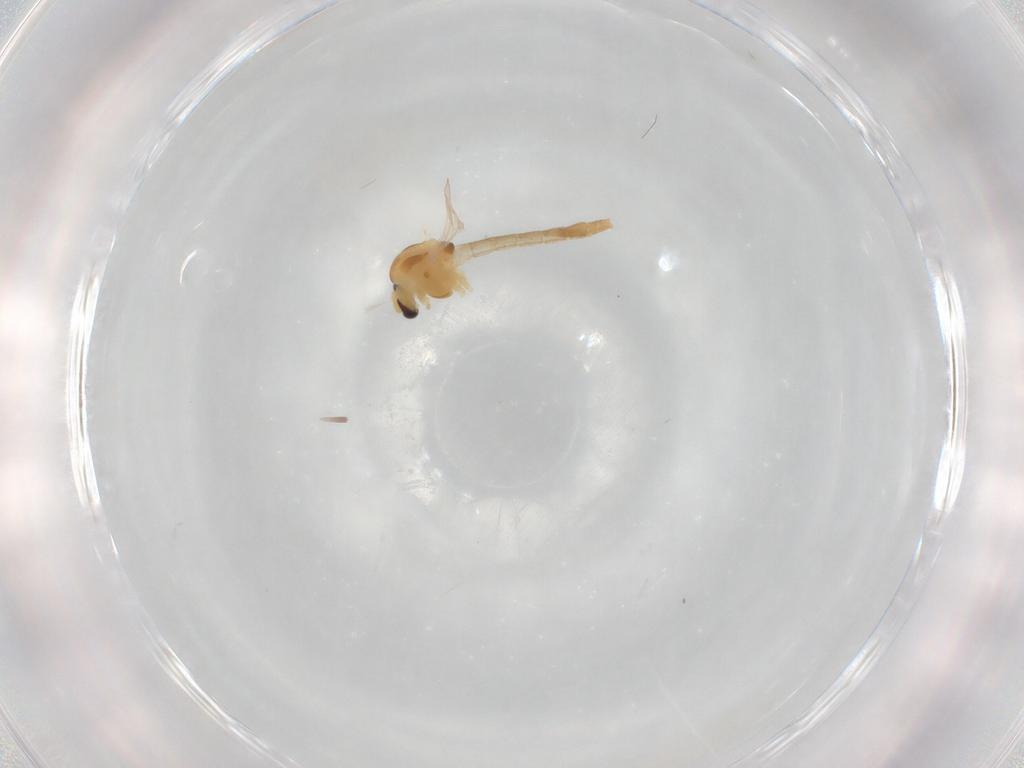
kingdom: Animalia
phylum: Arthropoda
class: Insecta
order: Diptera
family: Chironomidae
